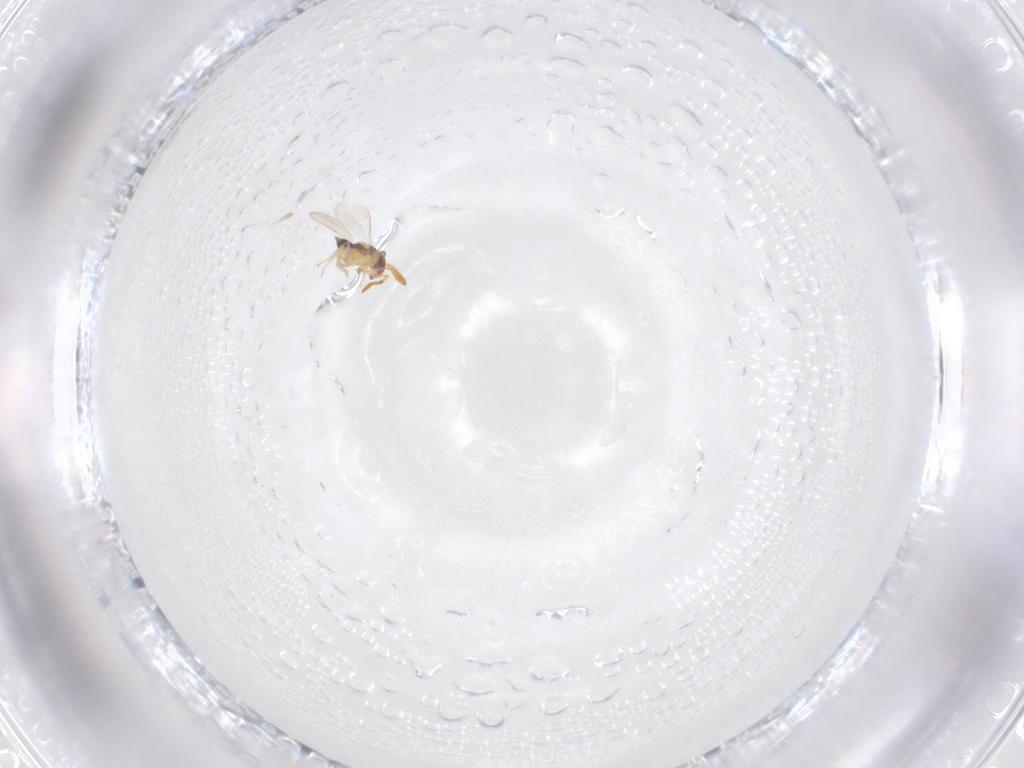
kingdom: Animalia
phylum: Arthropoda
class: Insecta
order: Hymenoptera
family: Aphelinidae
